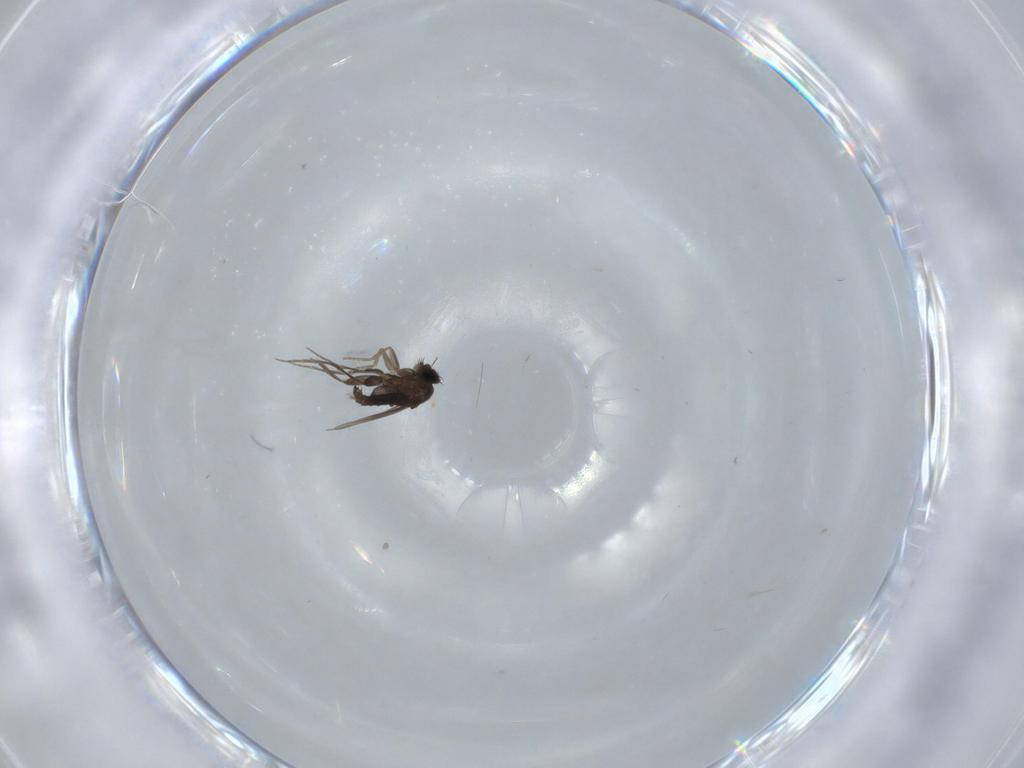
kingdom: Animalia
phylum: Arthropoda
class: Insecta
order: Diptera
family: Phoridae
